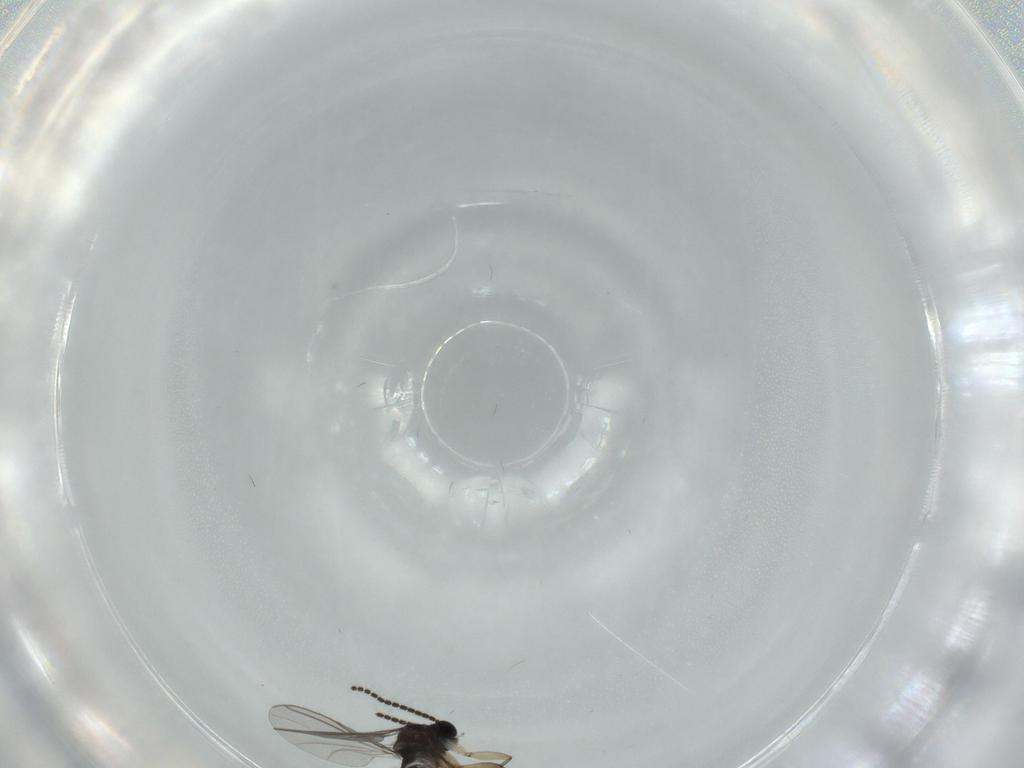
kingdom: Animalia
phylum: Arthropoda
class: Insecta
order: Diptera
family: Sciaridae
